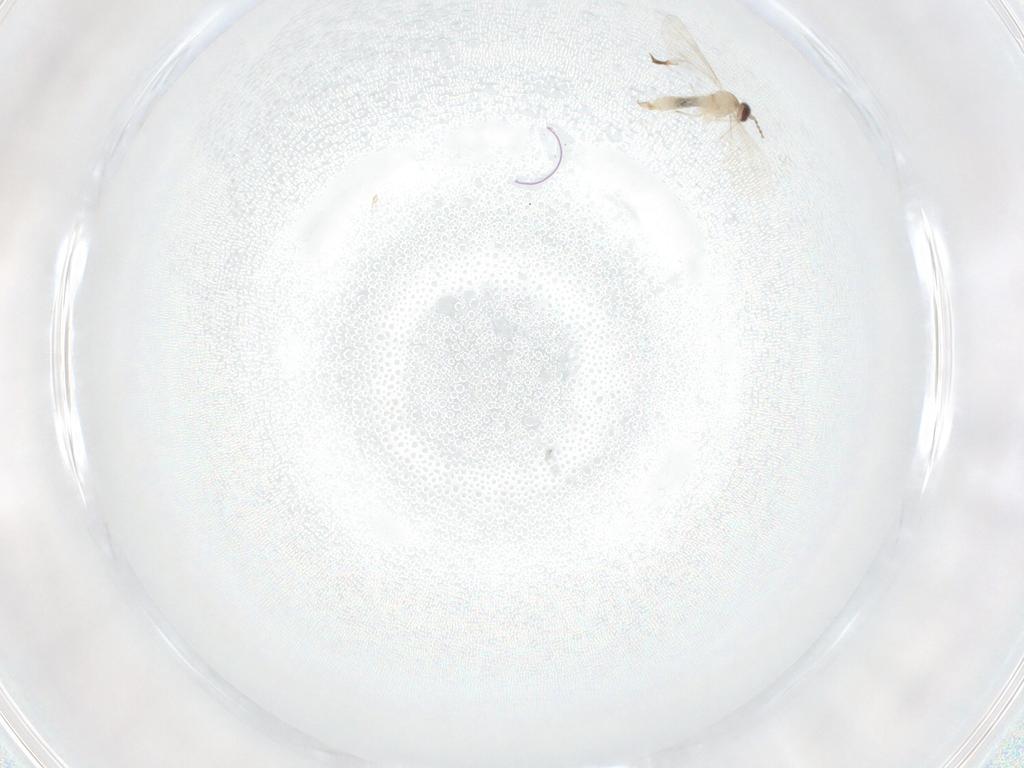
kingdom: Animalia
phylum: Arthropoda
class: Insecta
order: Diptera
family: Cecidomyiidae
